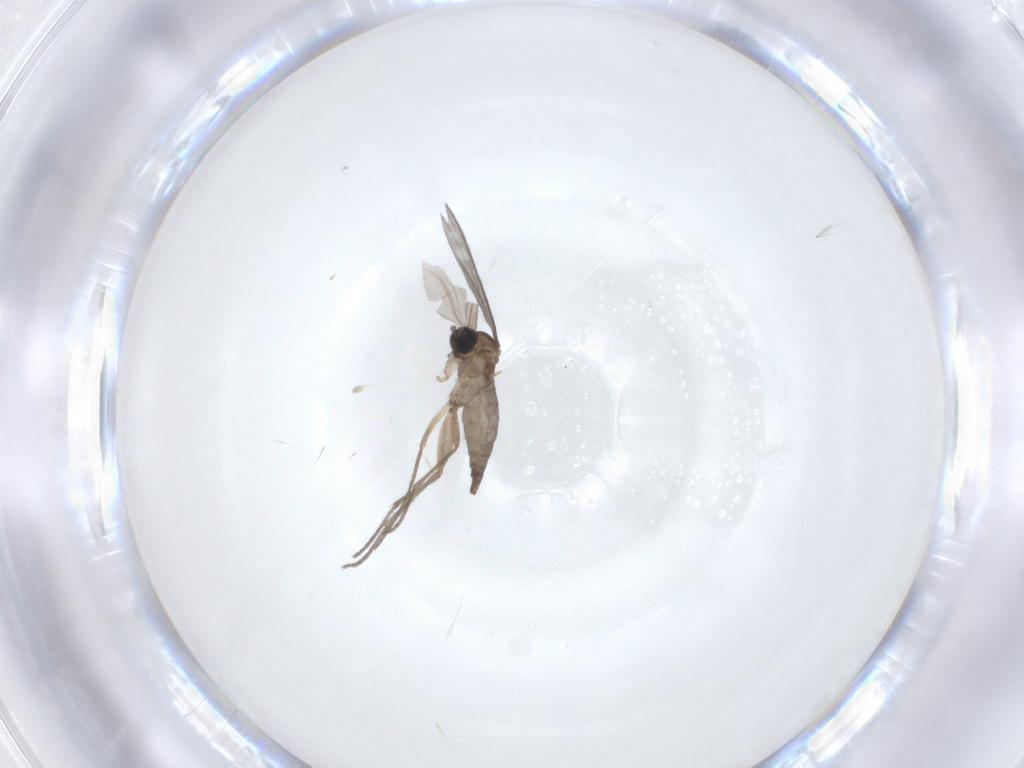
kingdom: Animalia
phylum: Arthropoda
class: Insecta
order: Diptera
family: Sciaridae
